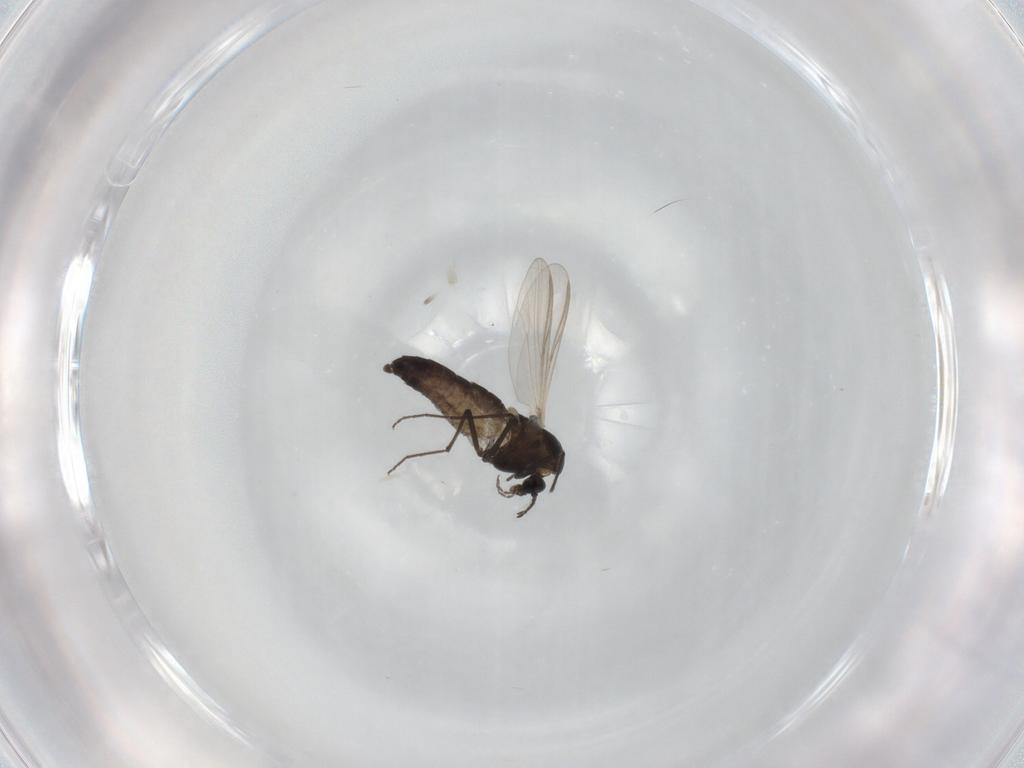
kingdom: Animalia
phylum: Arthropoda
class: Insecta
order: Diptera
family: Chironomidae
